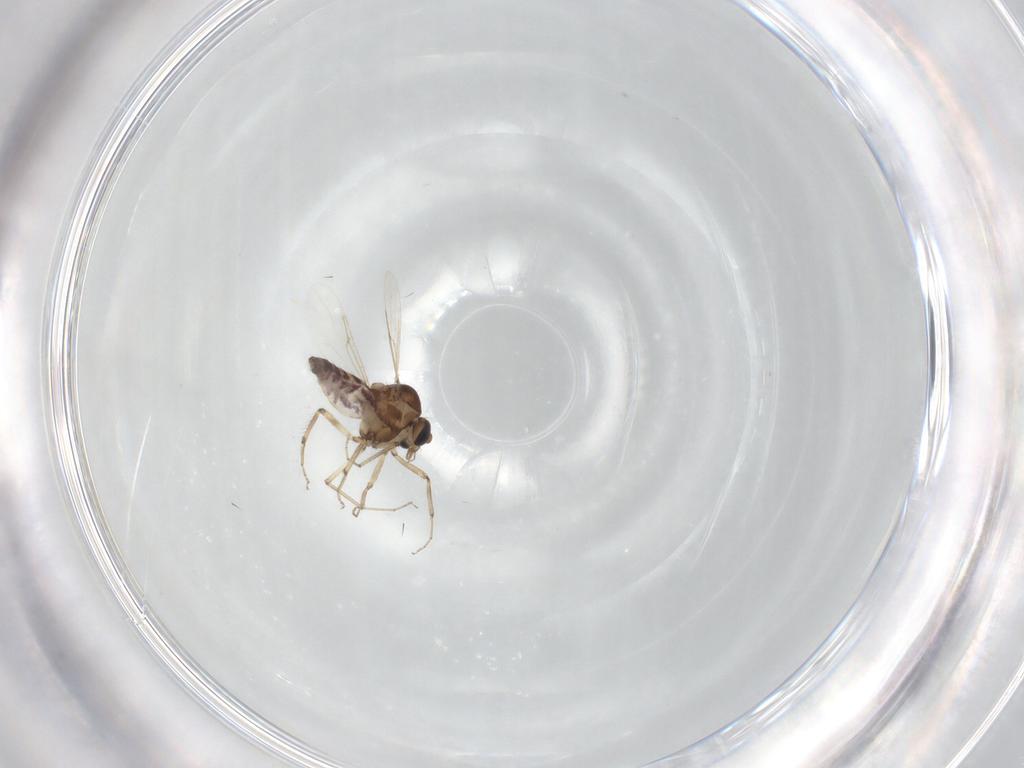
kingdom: Animalia
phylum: Arthropoda
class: Insecta
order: Diptera
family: Ceratopogonidae
